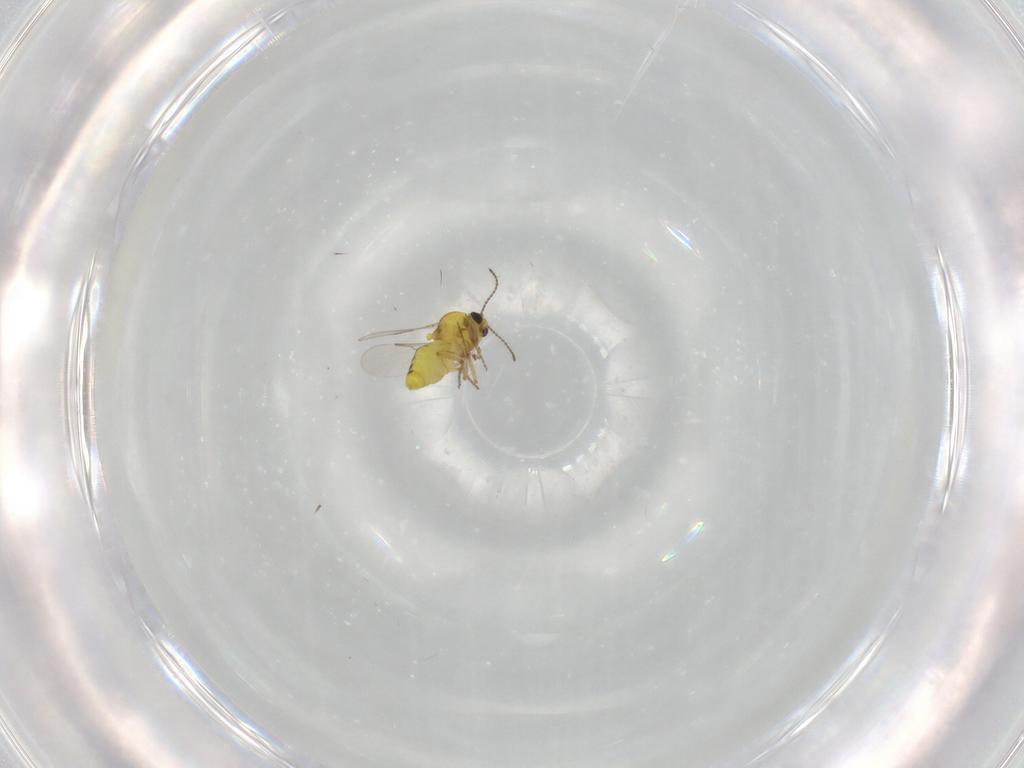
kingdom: Animalia
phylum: Arthropoda
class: Insecta
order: Diptera
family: Ceratopogonidae
